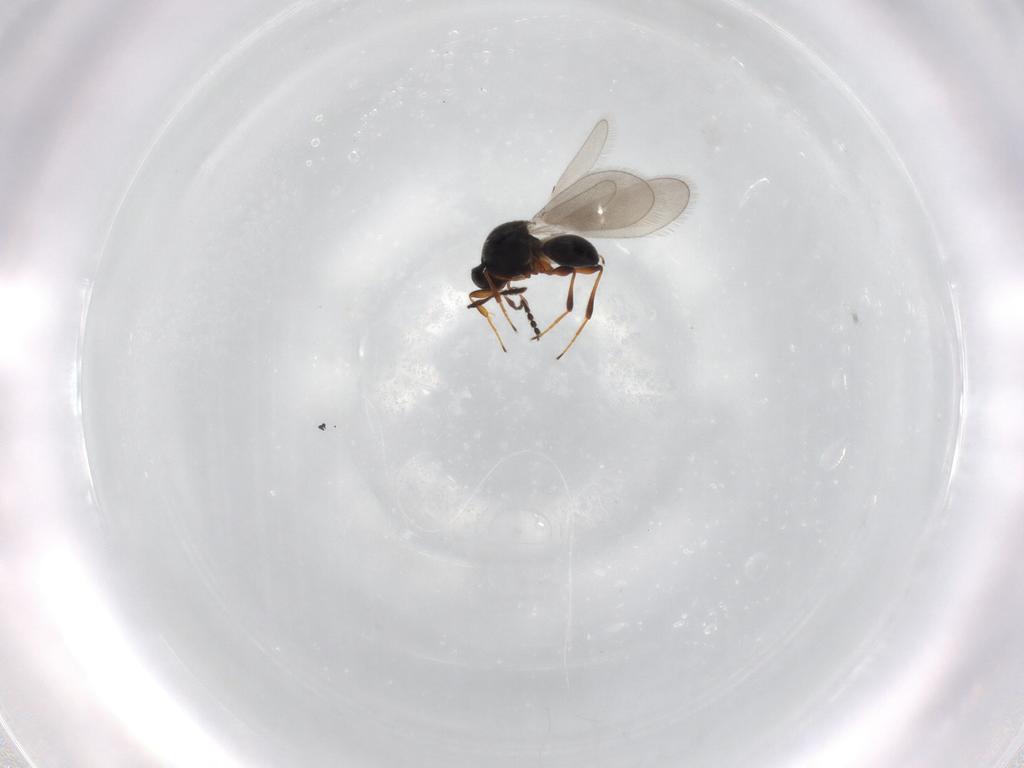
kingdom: Animalia
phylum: Arthropoda
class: Insecta
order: Hymenoptera
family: Platygastridae
